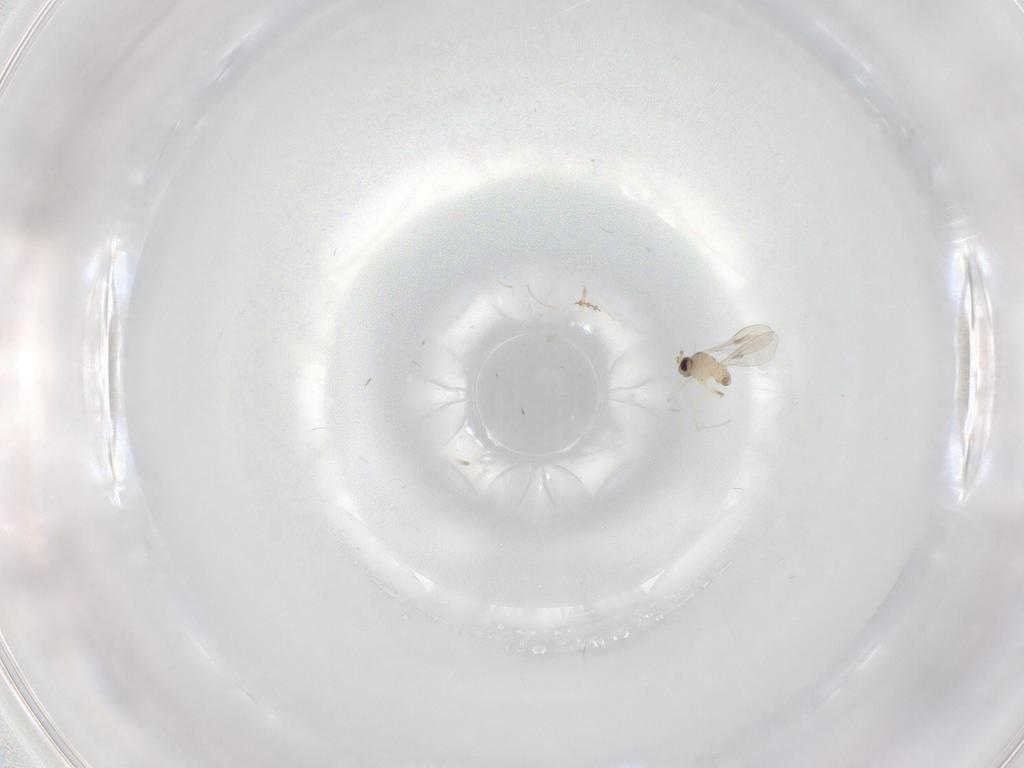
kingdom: Animalia
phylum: Arthropoda
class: Insecta
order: Diptera
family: Cecidomyiidae
